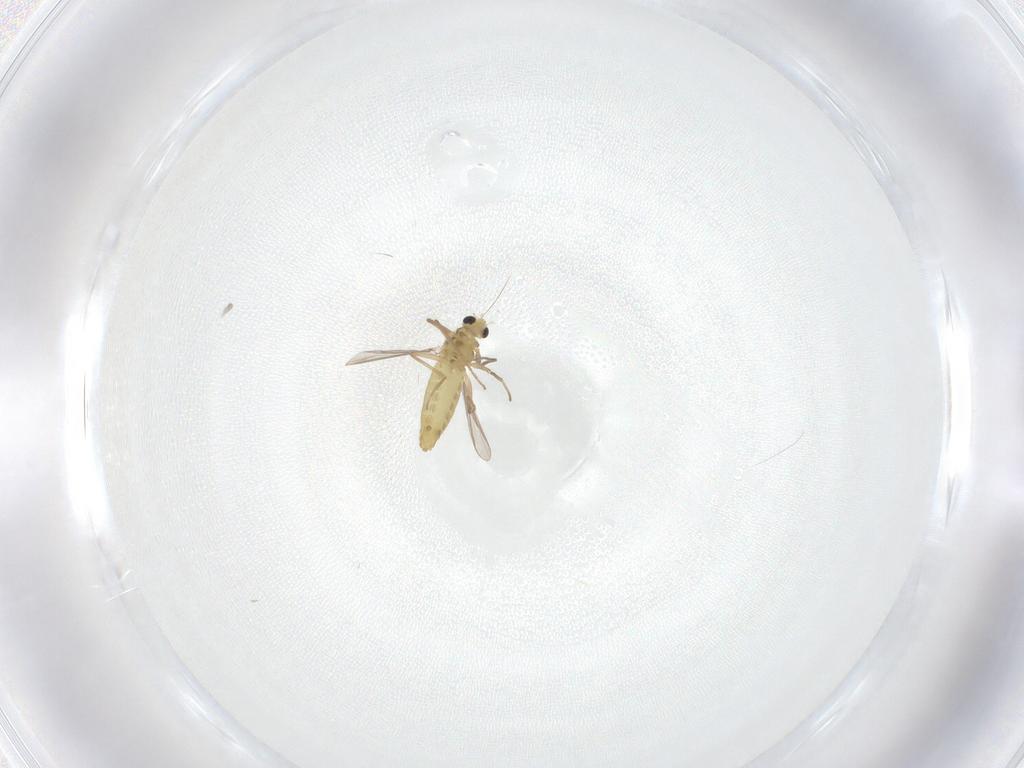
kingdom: Animalia
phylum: Arthropoda
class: Insecta
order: Diptera
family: Chironomidae
